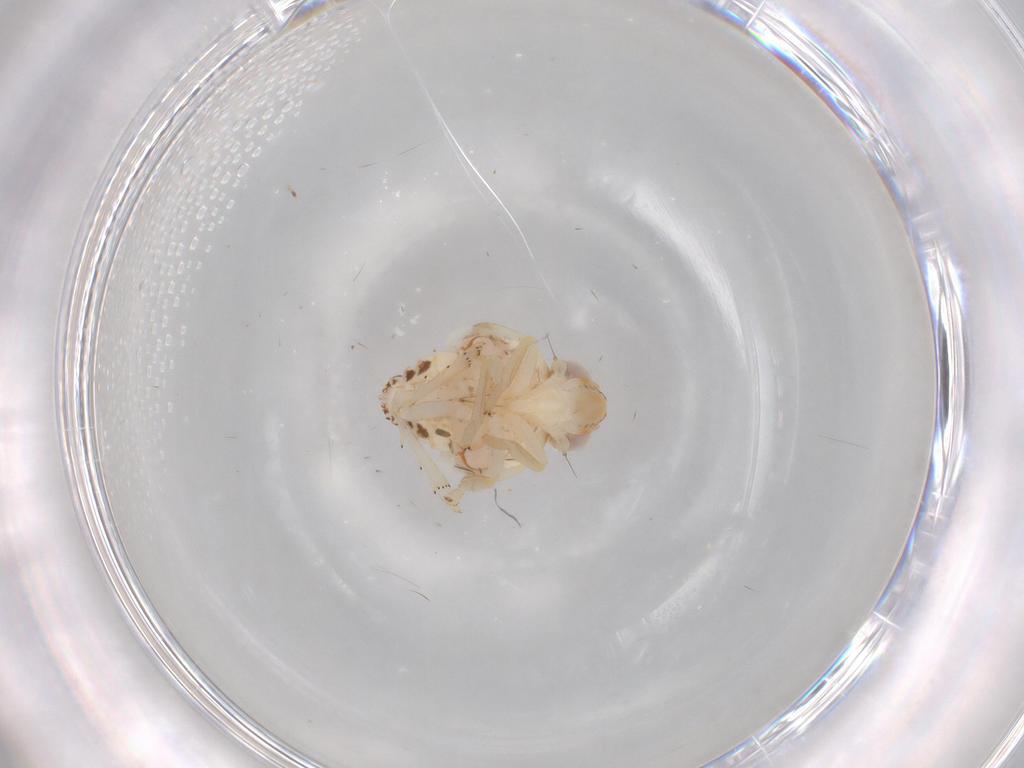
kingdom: Animalia
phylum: Arthropoda
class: Insecta
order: Hemiptera
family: Nogodinidae
